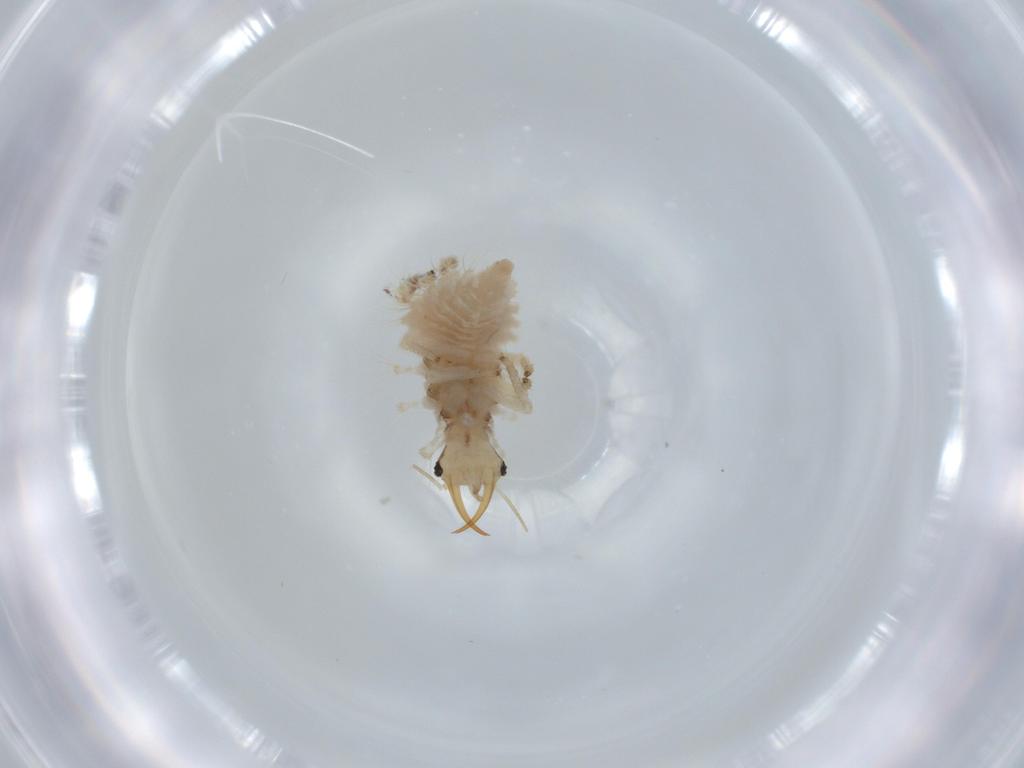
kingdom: Animalia
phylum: Arthropoda
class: Insecta
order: Neuroptera
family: Chrysopidae
